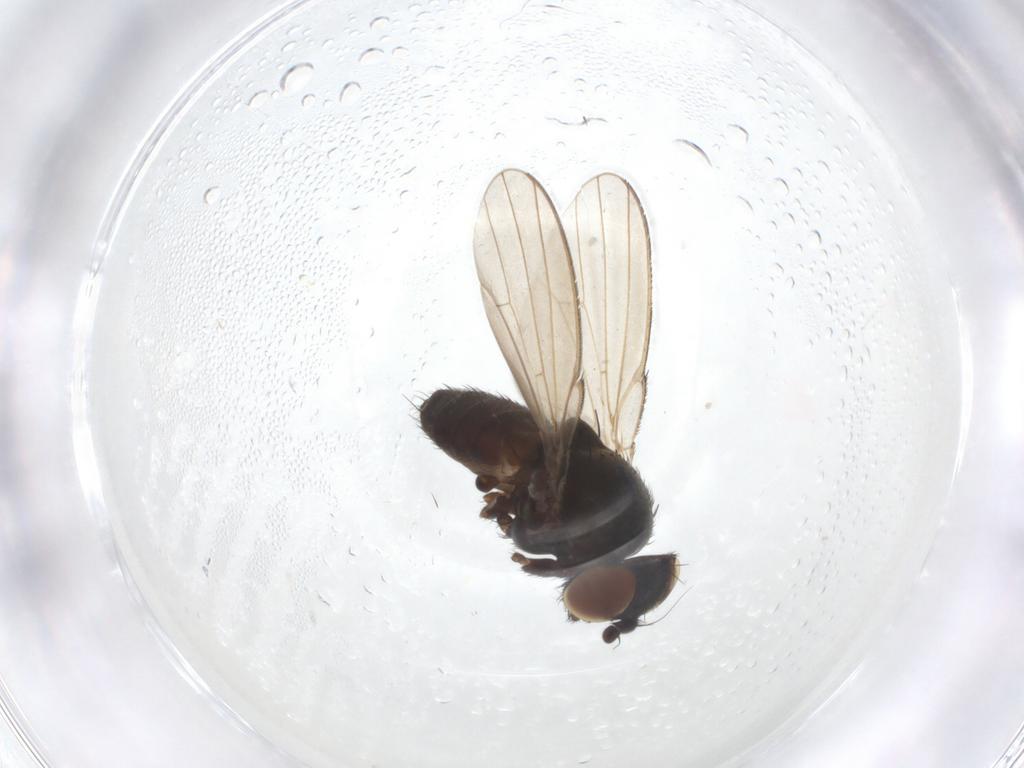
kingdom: Animalia
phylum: Arthropoda
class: Insecta
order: Diptera
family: Milichiidae
